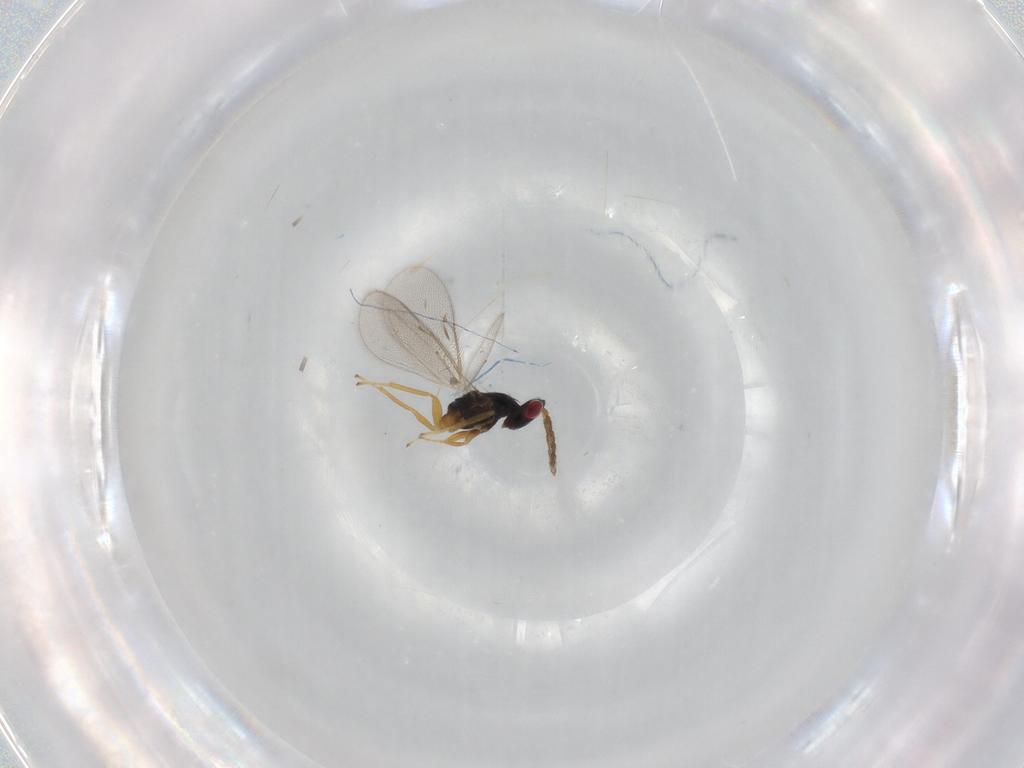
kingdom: Animalia
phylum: Arthropoda
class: Insecta
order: Hymenoptera
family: Eulophidae
